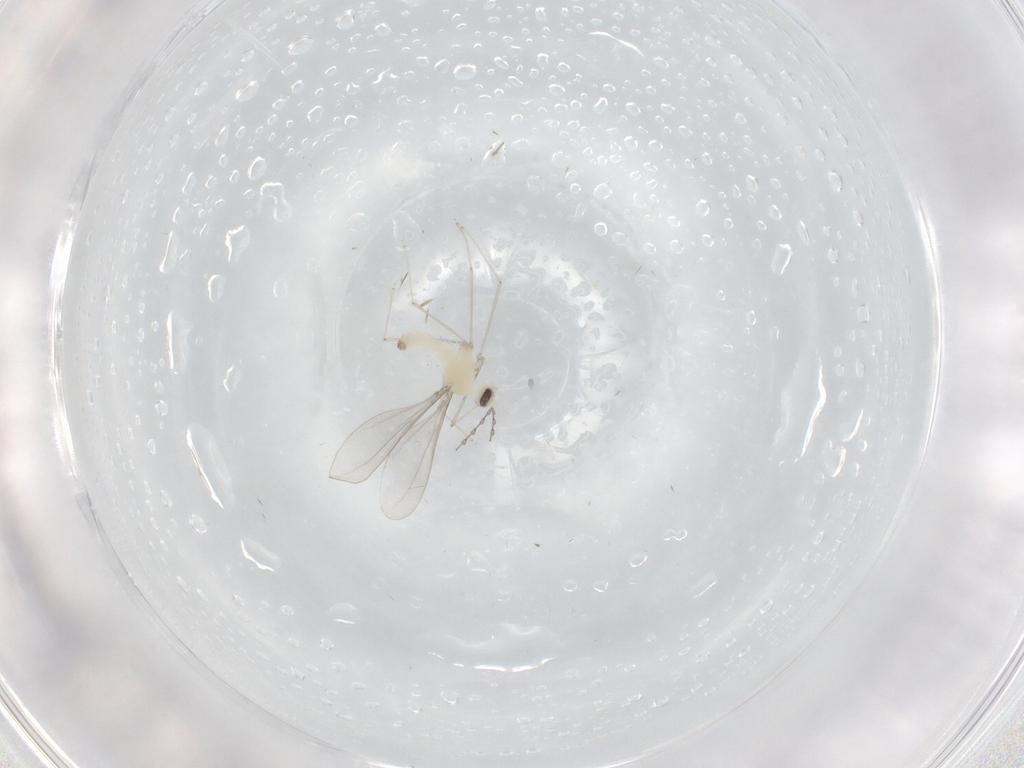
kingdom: Animalia
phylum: Arthropoda
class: Insecta
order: Diptera
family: Cecidomyiidae
